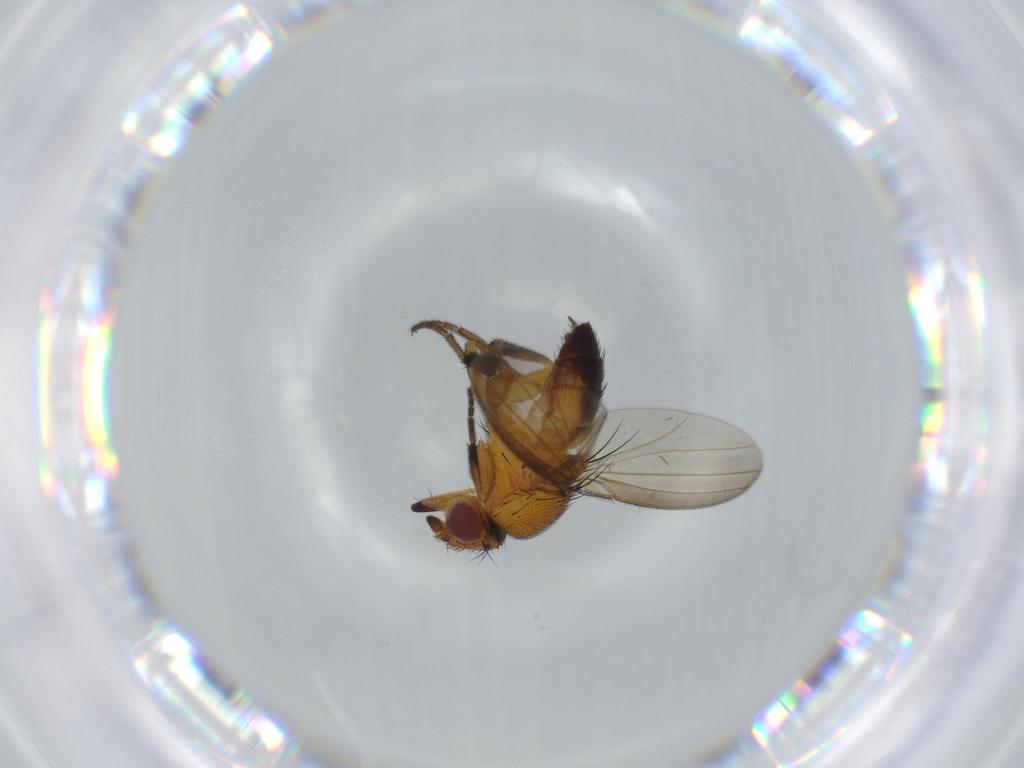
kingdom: Animalia
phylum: Arthropoda
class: Insecta
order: Diptera
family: Milichiidae
